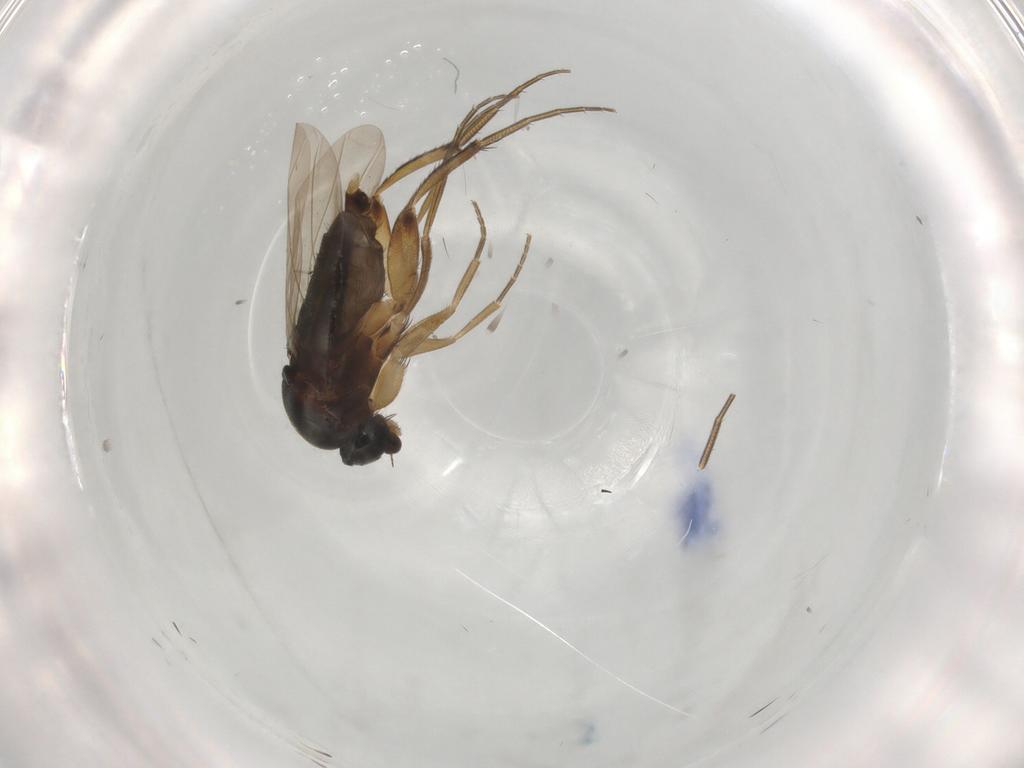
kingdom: Animalia
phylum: Arthropoda
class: Insecta
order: Diptera
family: Phoridae
